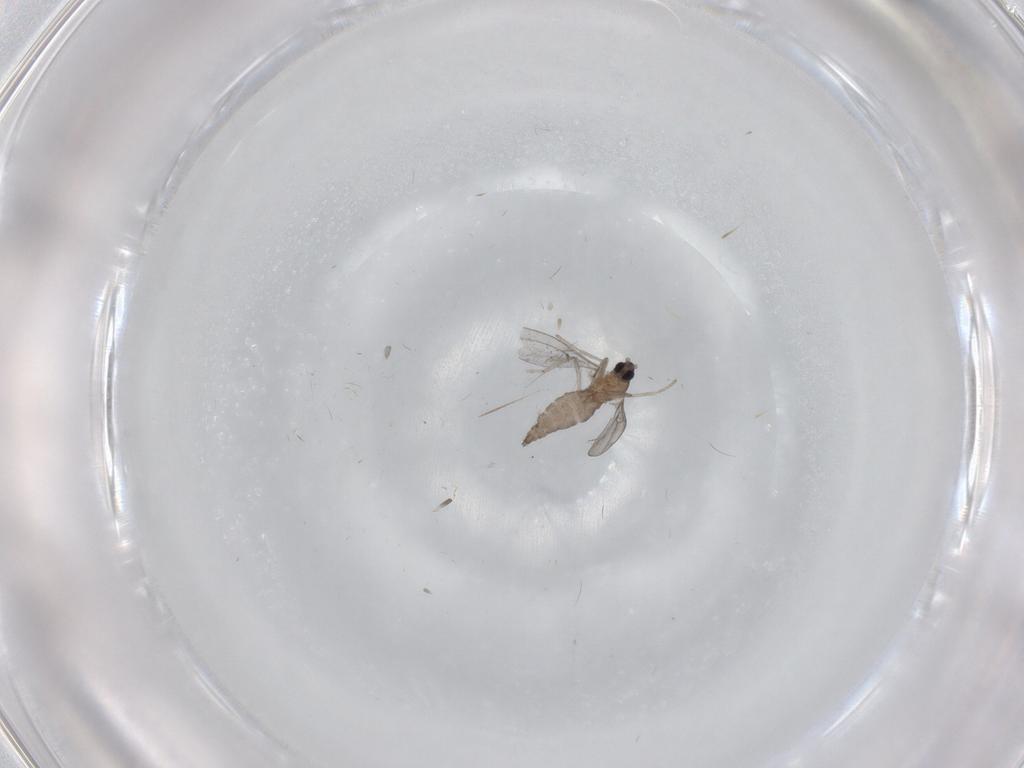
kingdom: Animalia
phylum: Arthropoda
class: Insecta
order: Diptera
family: Cecidomyiidae
